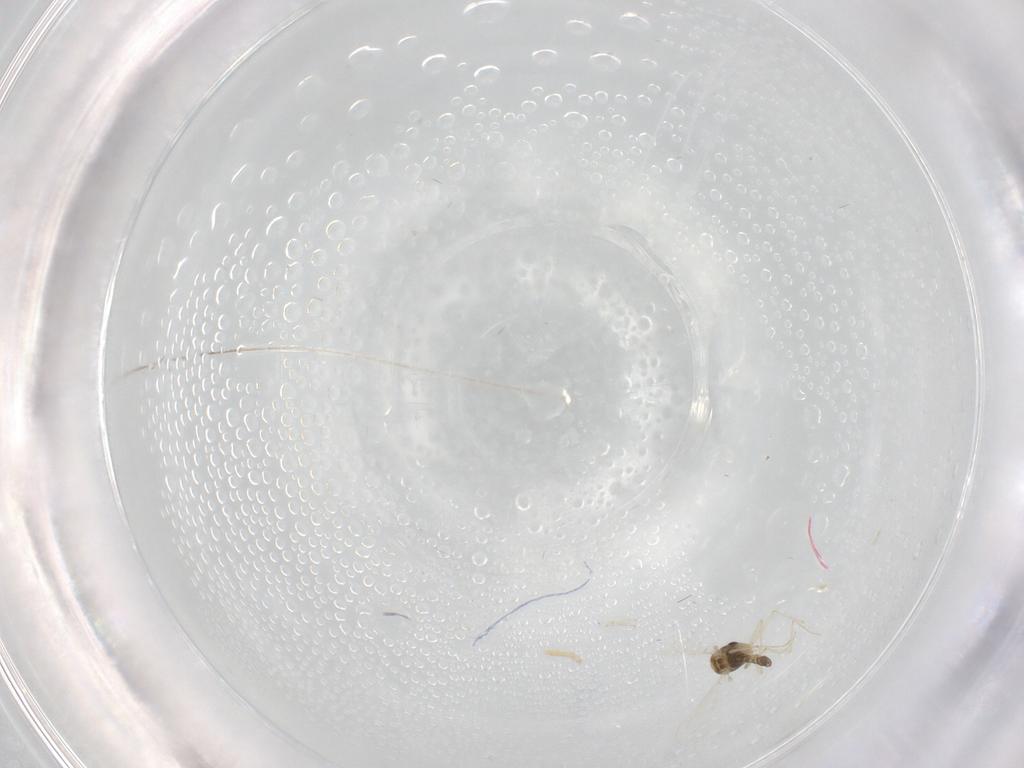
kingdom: Animalia
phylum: Arthropoda
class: Insecta
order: Diptera
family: Chironomidae
